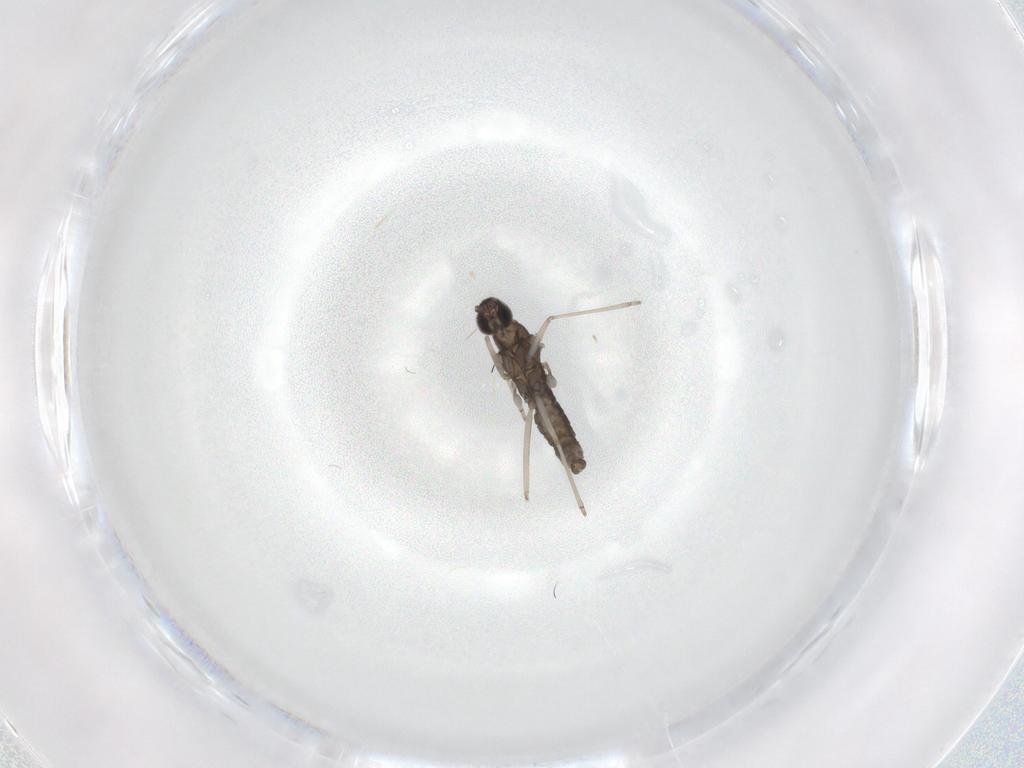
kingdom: Animalia
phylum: Arthropoda
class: Insecta
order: Diptera
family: Cecidomyiidae
